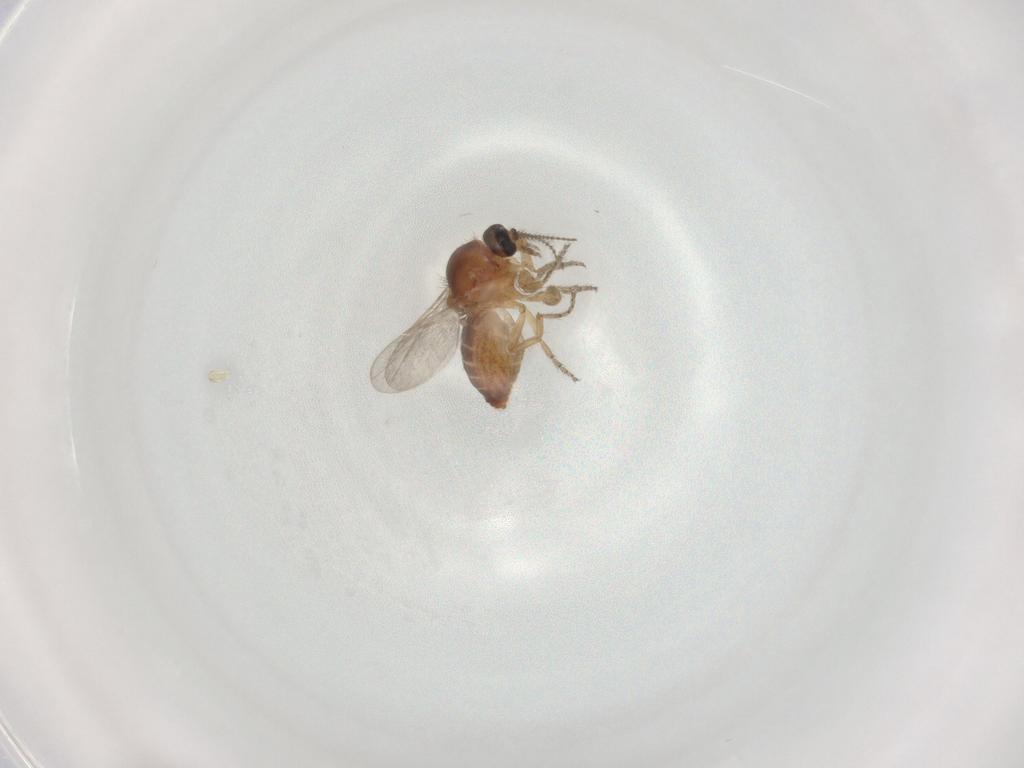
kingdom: Animalia
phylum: Arthropoda
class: Insecta
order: Diptera
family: Ceratopogonidae
